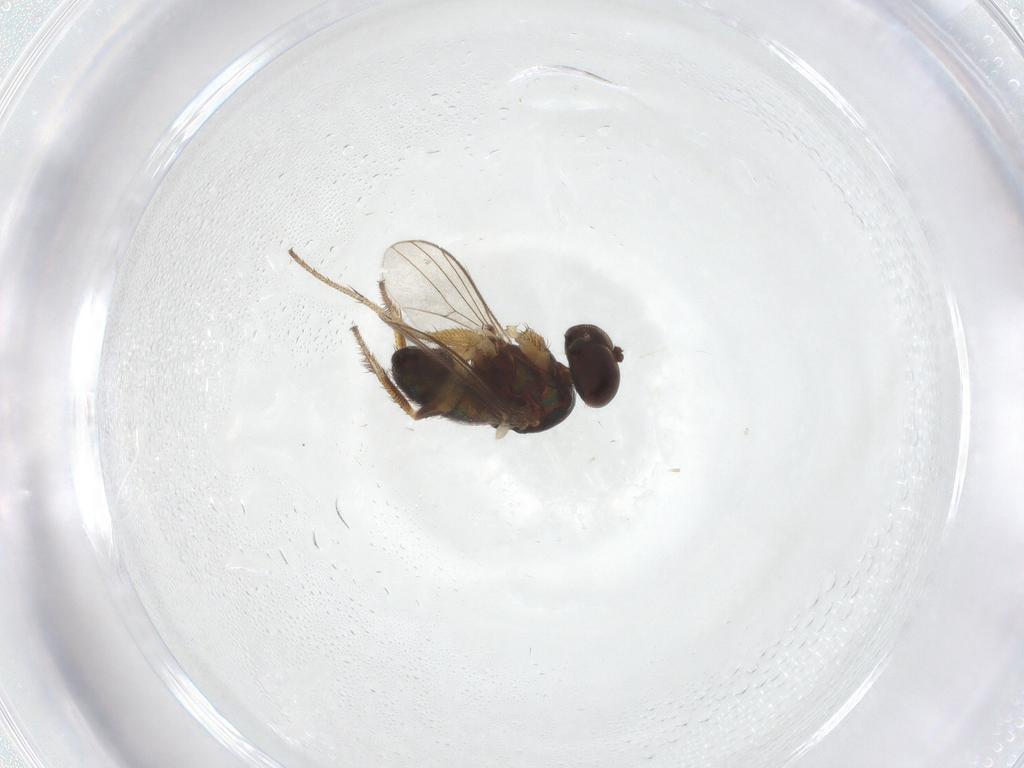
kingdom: Animalia
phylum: Arthropoda
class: Insecta
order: Diptera
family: Dolichopodidae
